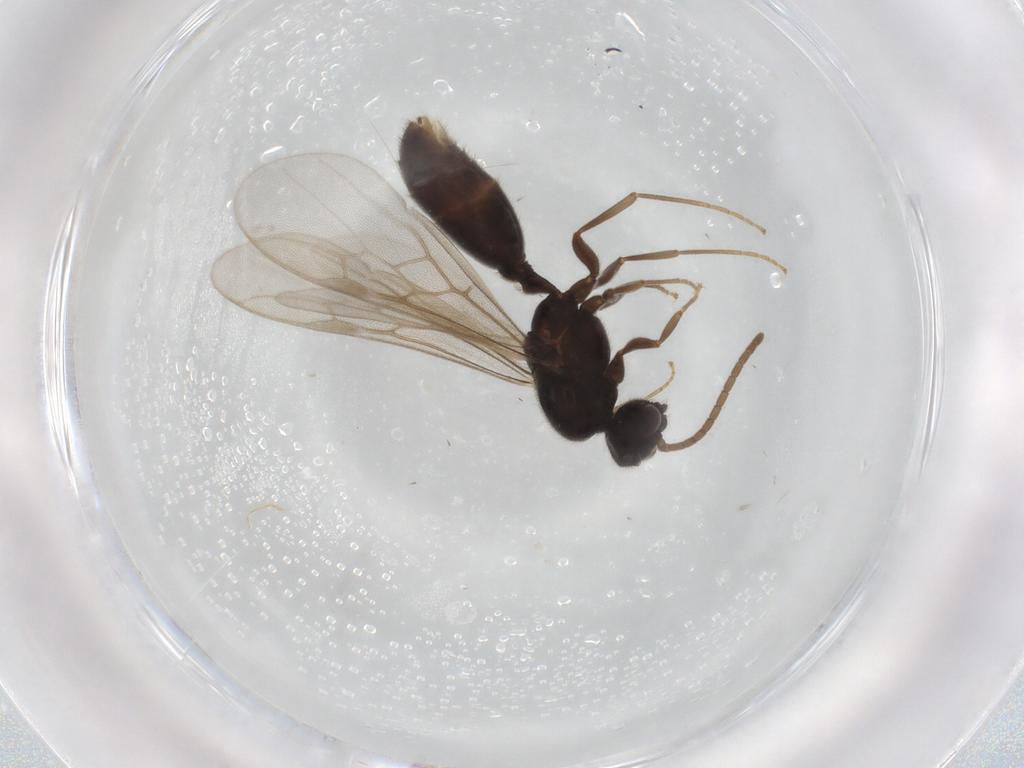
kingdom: Animalia
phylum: Arthropoda
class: Insecta
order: Hymenoptera
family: Formicidae
